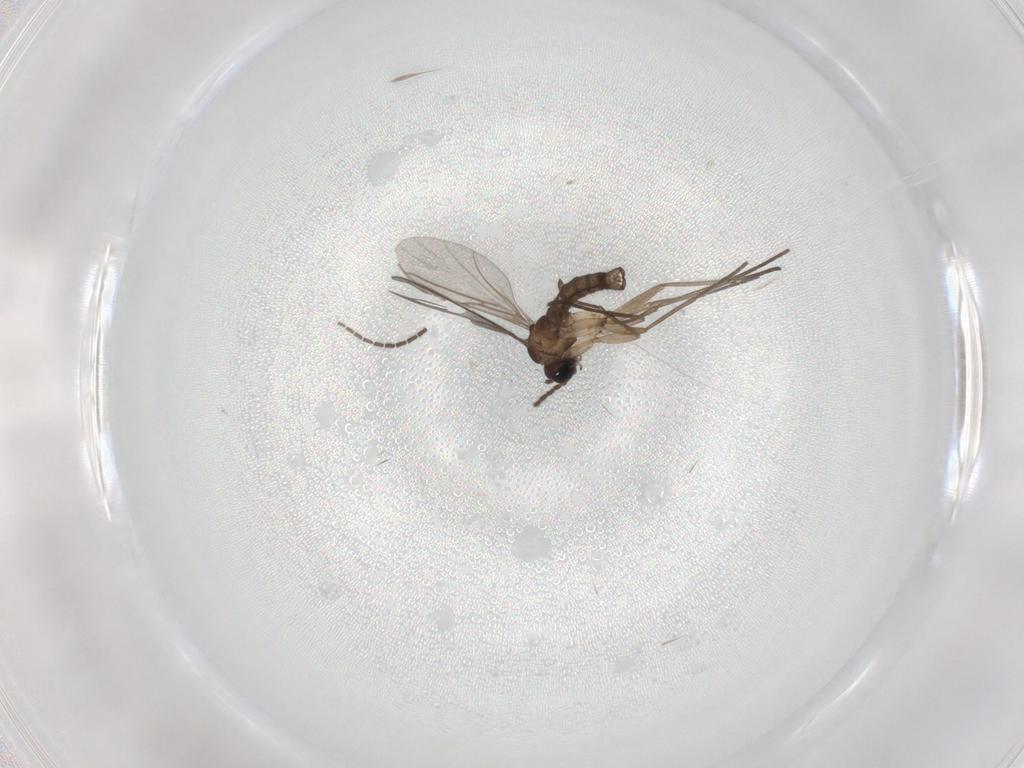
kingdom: Animalia
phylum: Arthropoda
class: Insecta
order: Diptera
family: Sciaridae
